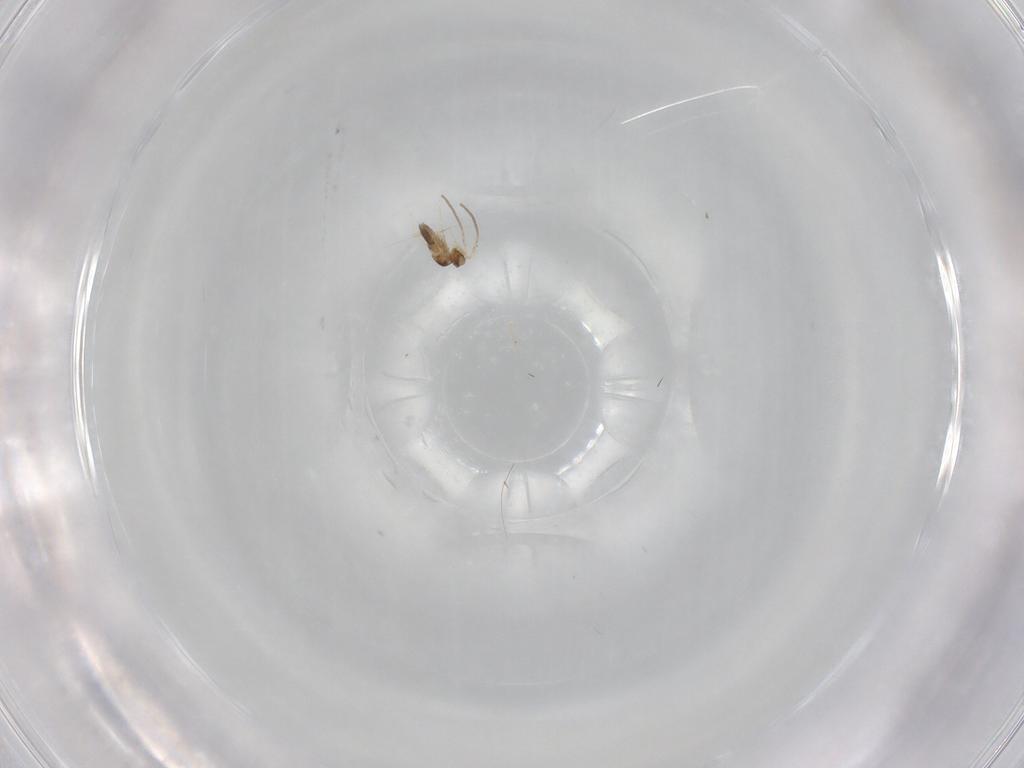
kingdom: Animalia
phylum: Arthropoda
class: Insecta
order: Hymenoptera
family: Mymaridae
